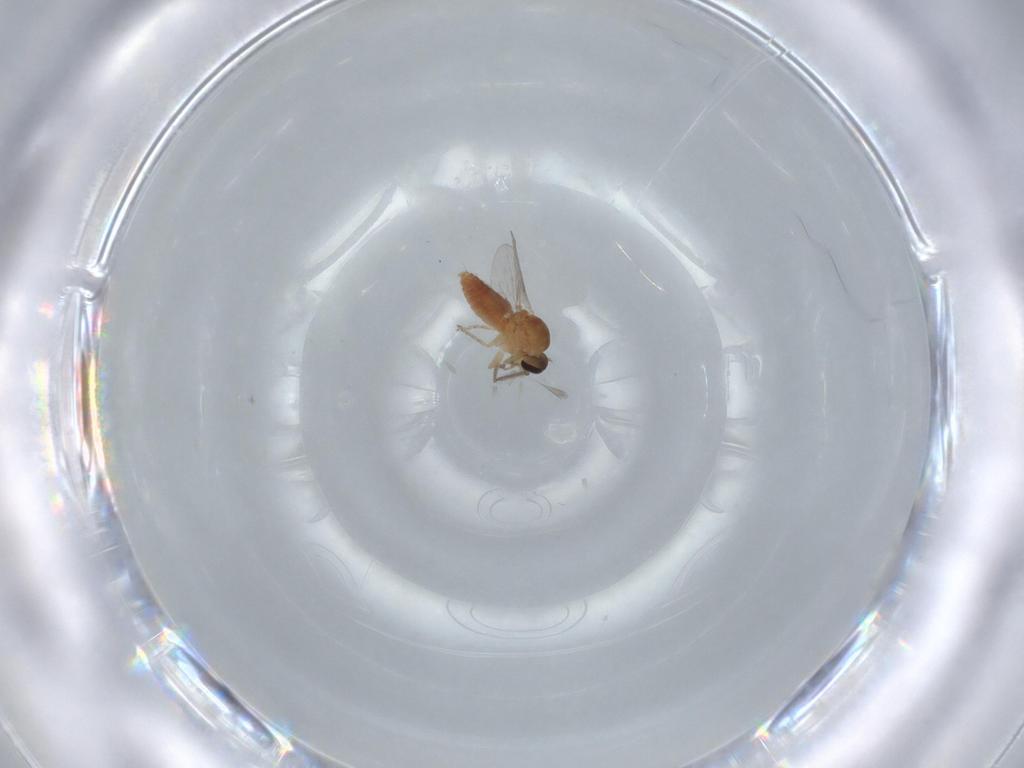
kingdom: Animalia
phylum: Arthropoda
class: Insecta
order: Diptera
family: Ceratopogonidae
